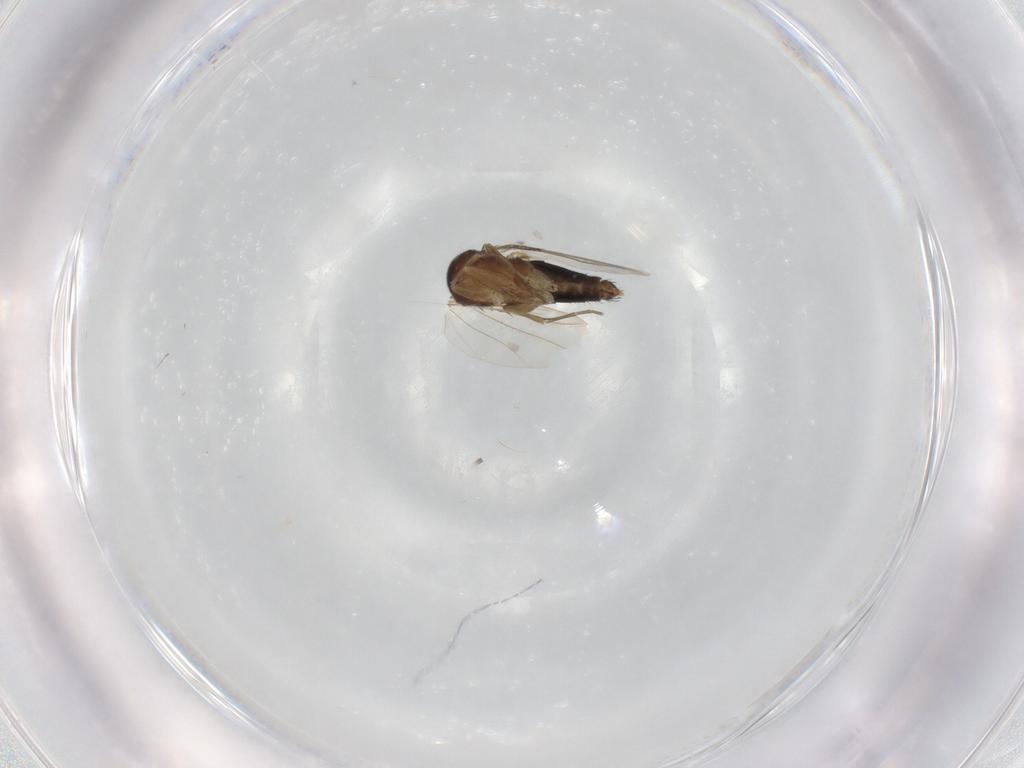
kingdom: Animalia
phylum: Arthropoda
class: Insecta
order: Diptera
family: Phoridae
